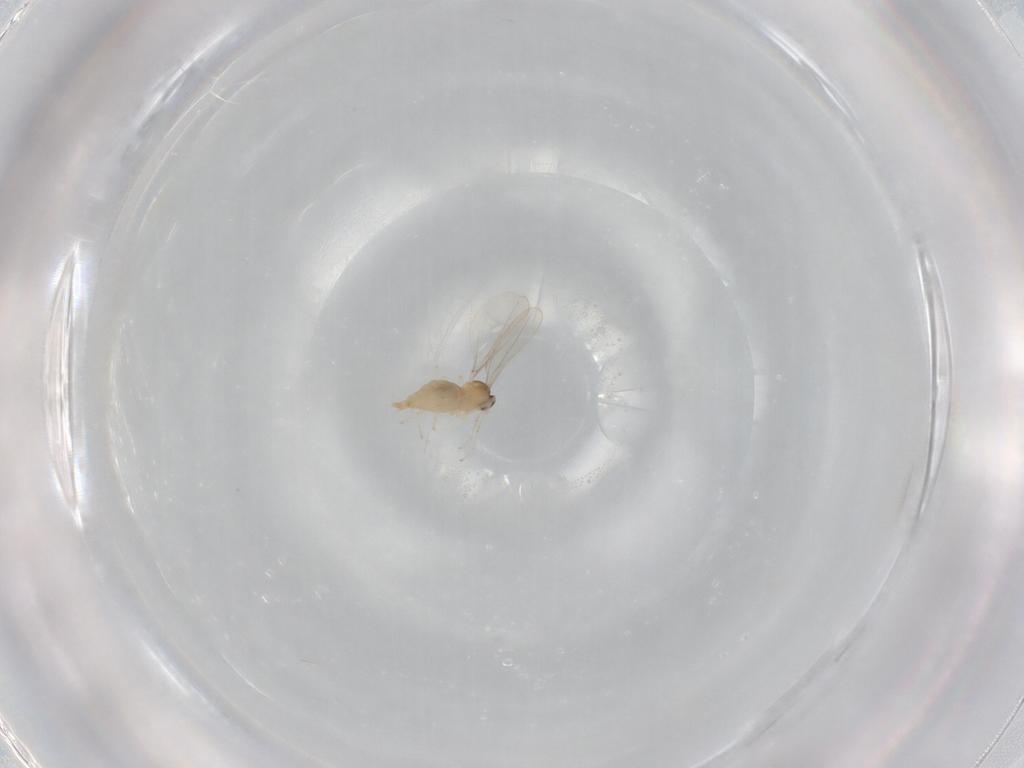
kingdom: Animalia
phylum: Arthropoda
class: Insecta
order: Diptera
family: Cecidomyiidae
